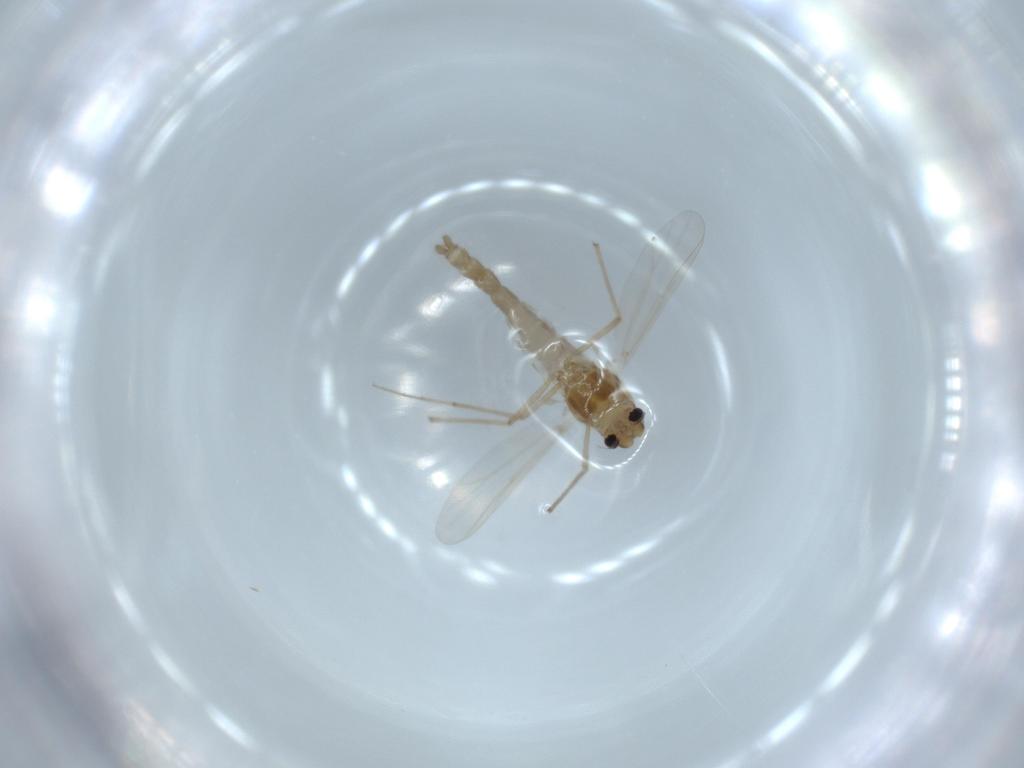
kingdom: Animalia
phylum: Arthropoda
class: Insecta
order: Diptera
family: Chironomidae
